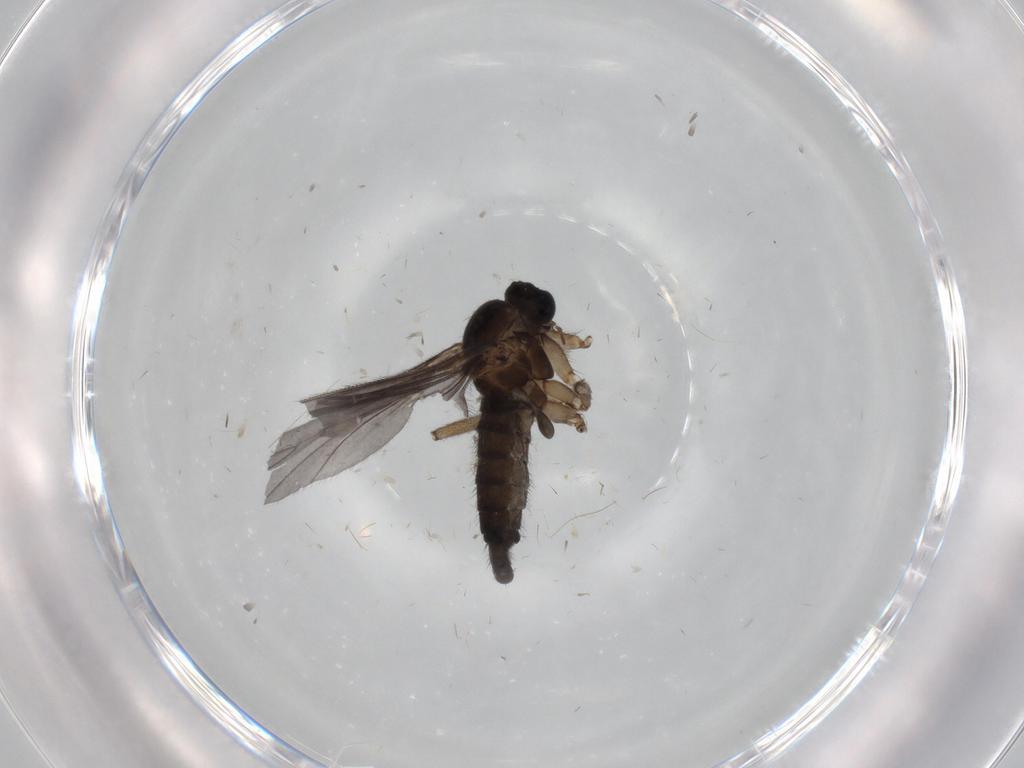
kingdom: Animalia
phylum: Arthropoda
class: Insecta
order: Diptera
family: Sciaridae
